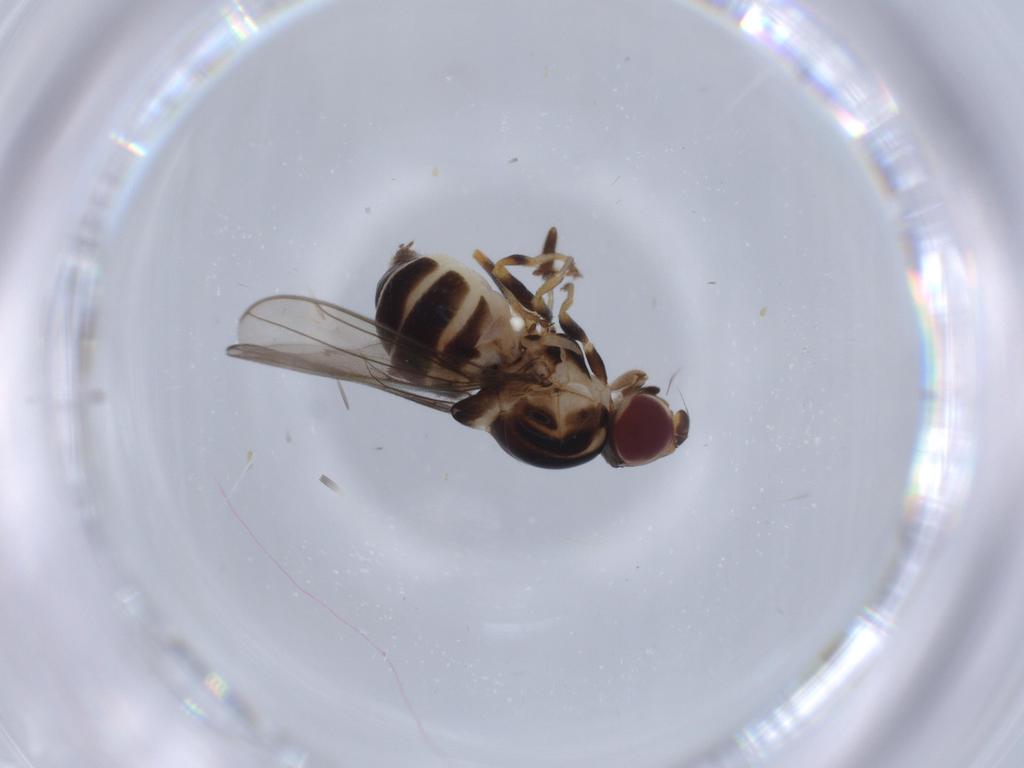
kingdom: Animalia
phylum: Arthropoda
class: Insecta
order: Diptera
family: Chloropidae
